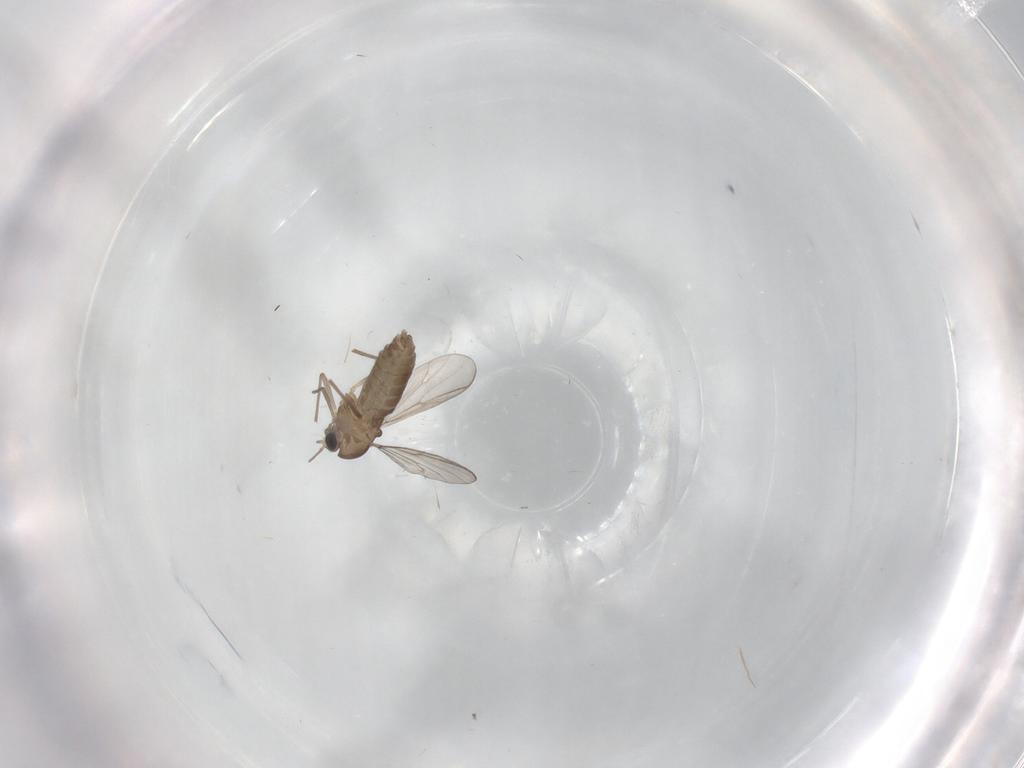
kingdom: Animalia
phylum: Arthropoda
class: Insecta
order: Diptera
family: Chironomidae
